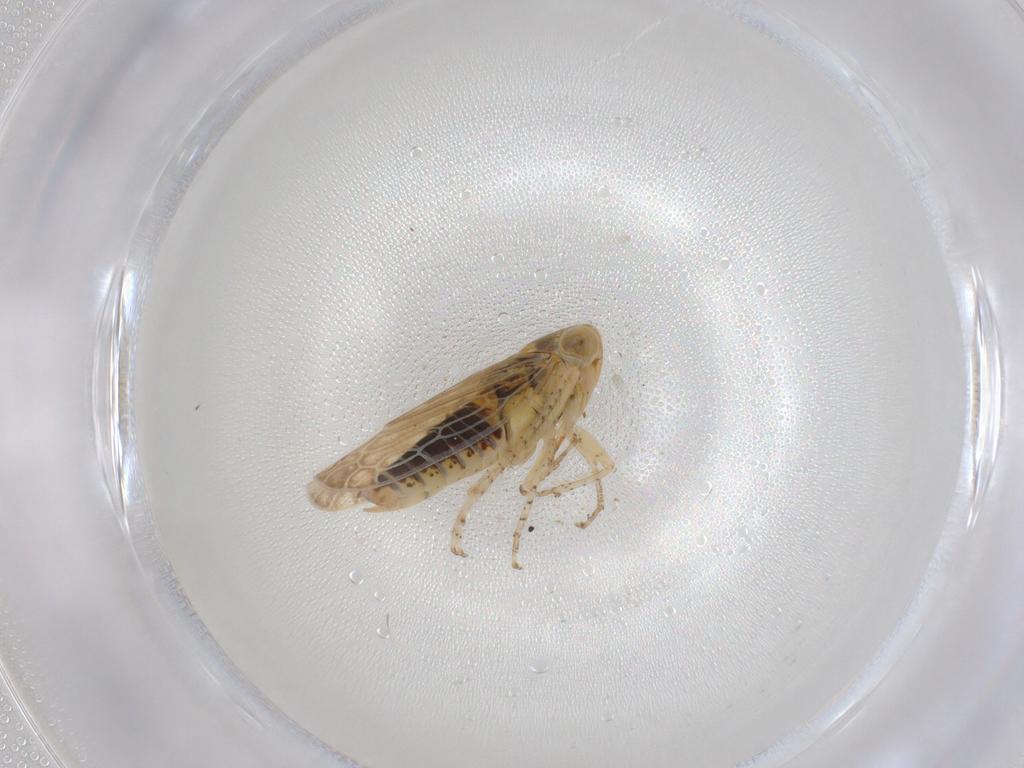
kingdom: Animalia
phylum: Arthropoda
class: Insecta
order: Hemiptera
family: Cicadellidae
